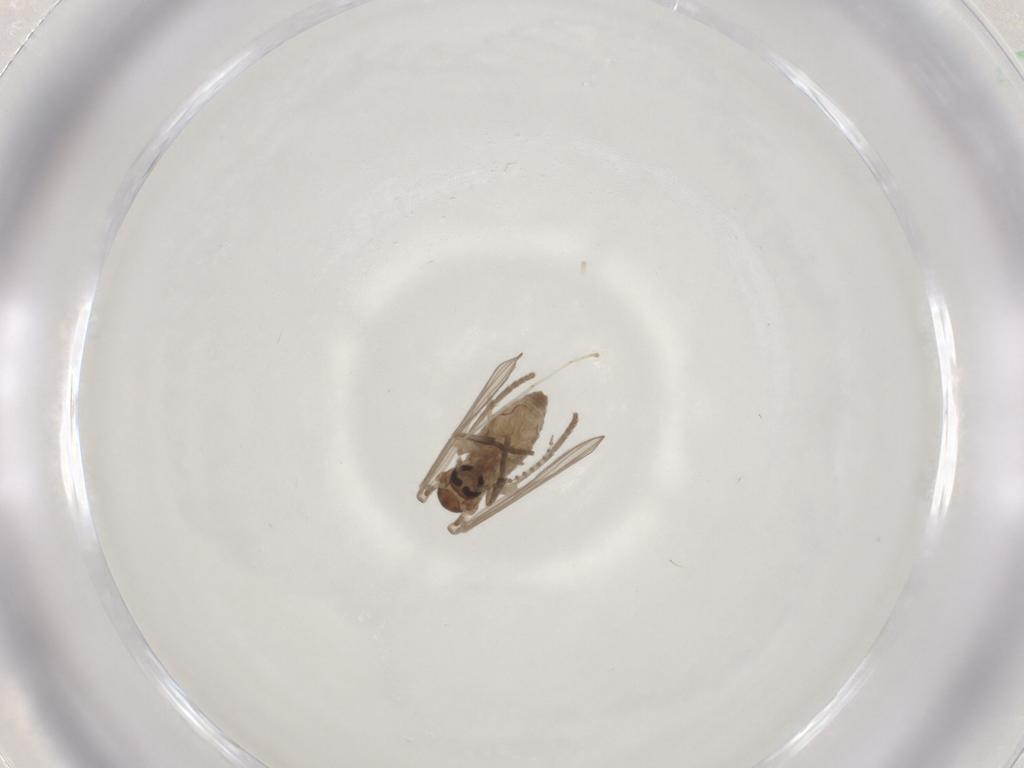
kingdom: Animalia
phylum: Arthropoda
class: Insecta
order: Diptera
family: Psychodidae
